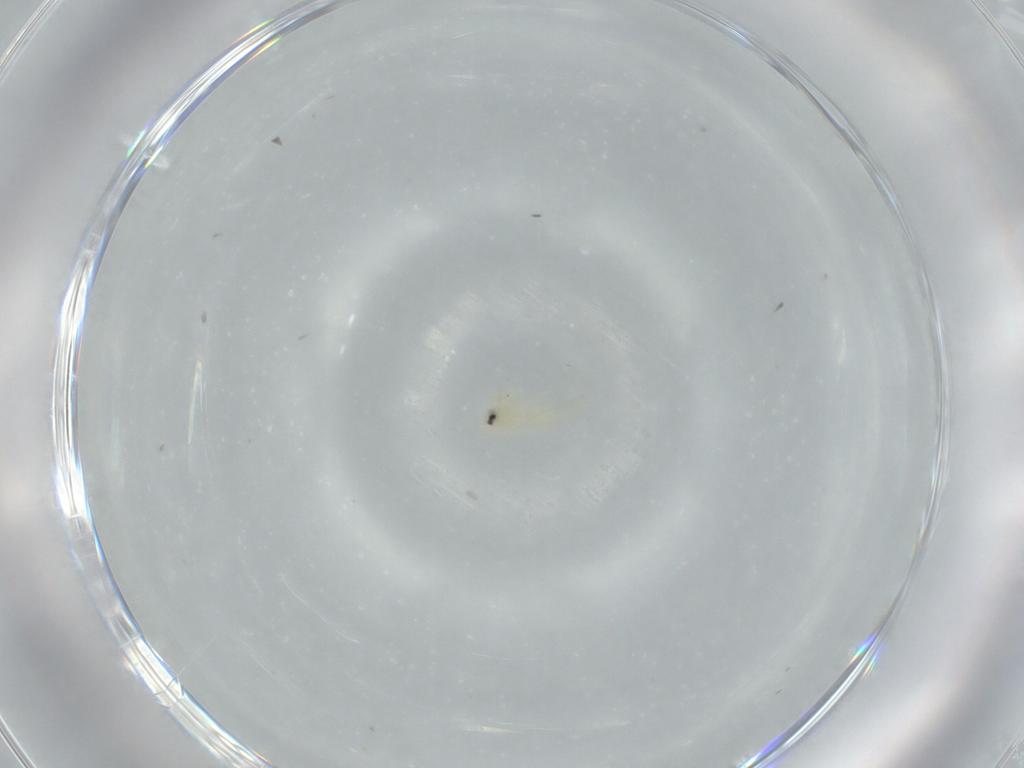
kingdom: Animalia
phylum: Arthropoda
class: Insecta
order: Hemiptera
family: Aleyrodidae
